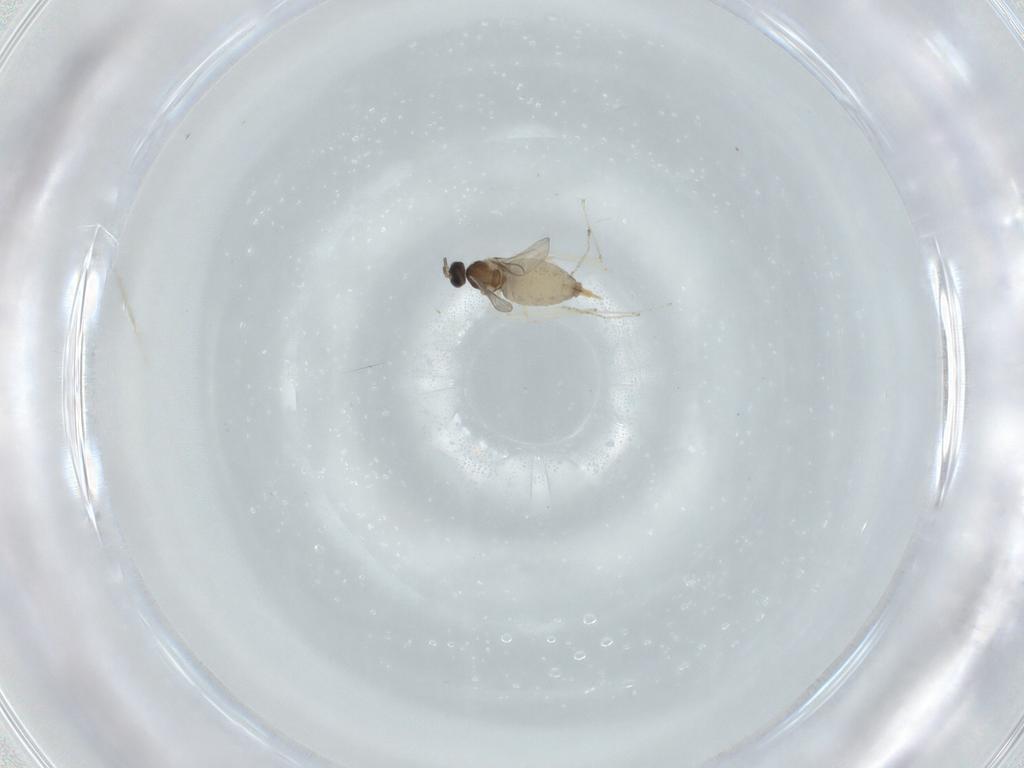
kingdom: Animalia
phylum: Arthropoda
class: Insecta
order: Diptera
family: Cecidomyiidae
